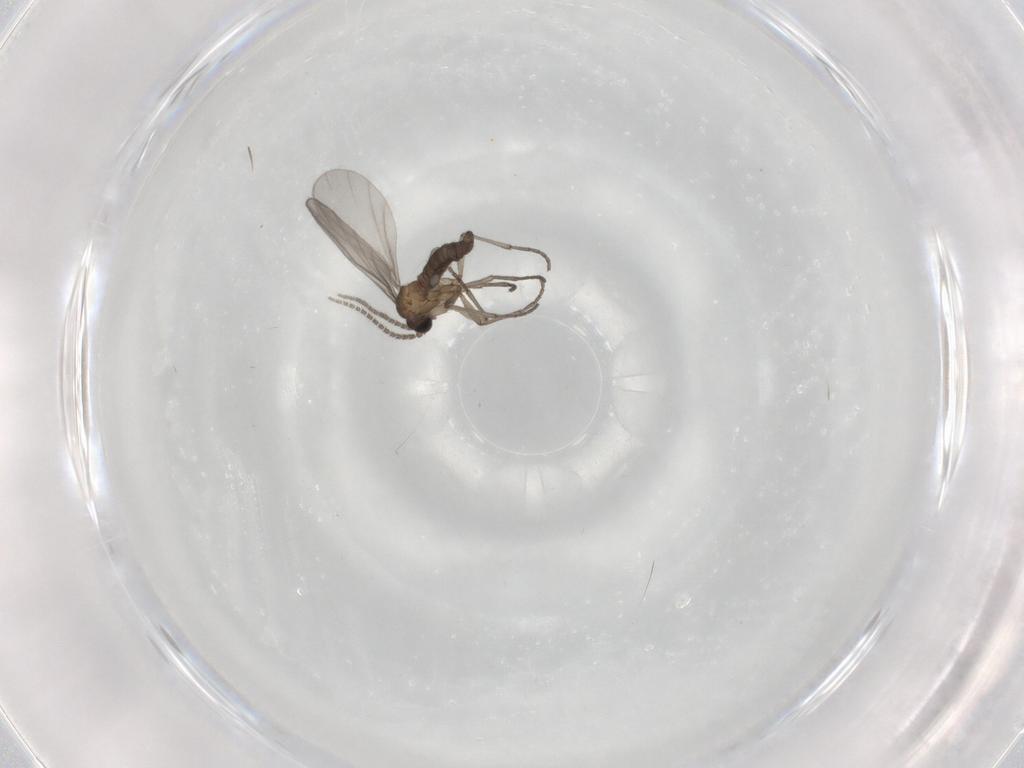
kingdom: Animalia
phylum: Arthropoda
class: Insecta
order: Diptera
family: Sciaridae
